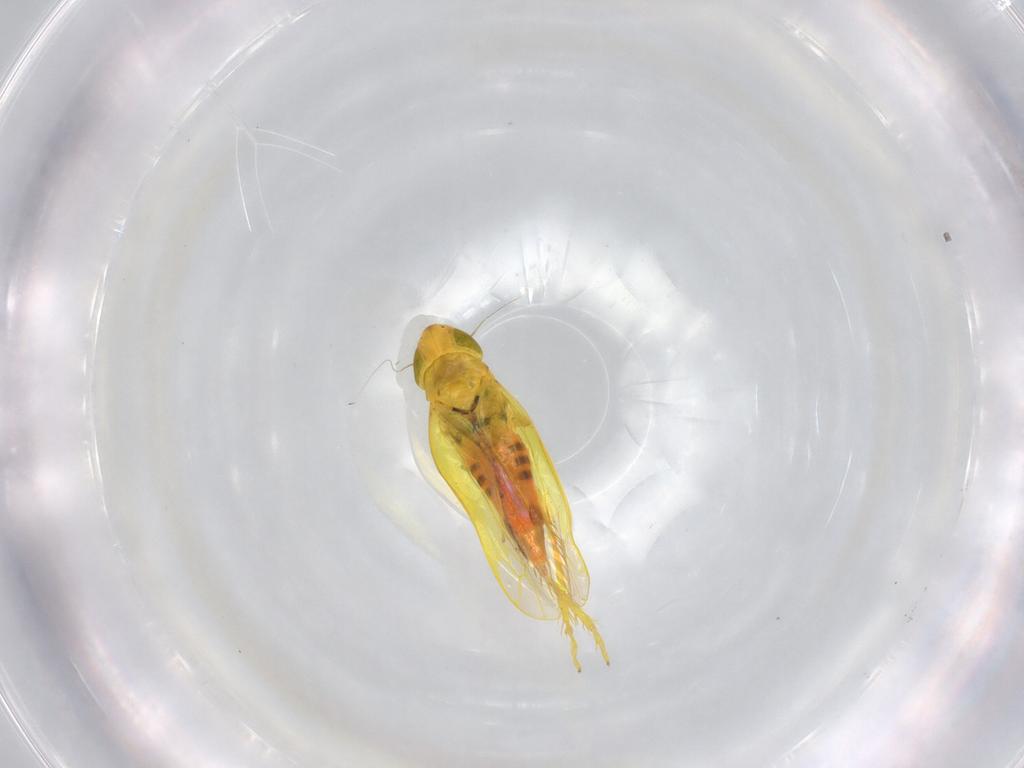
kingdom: Animalia
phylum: Arthropoda
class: Insecta
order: Hemiptera
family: Cicadellidae
